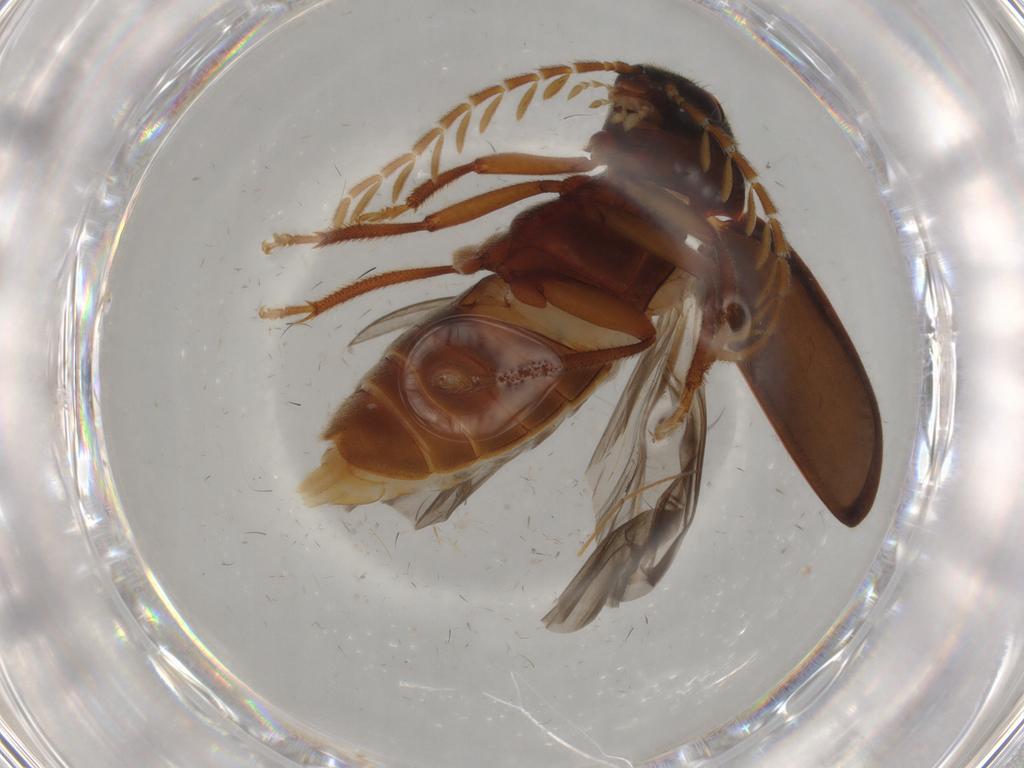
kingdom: Animalia
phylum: Arthropoda
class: Insecta
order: Coleoptera
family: Ptilodactylidae
